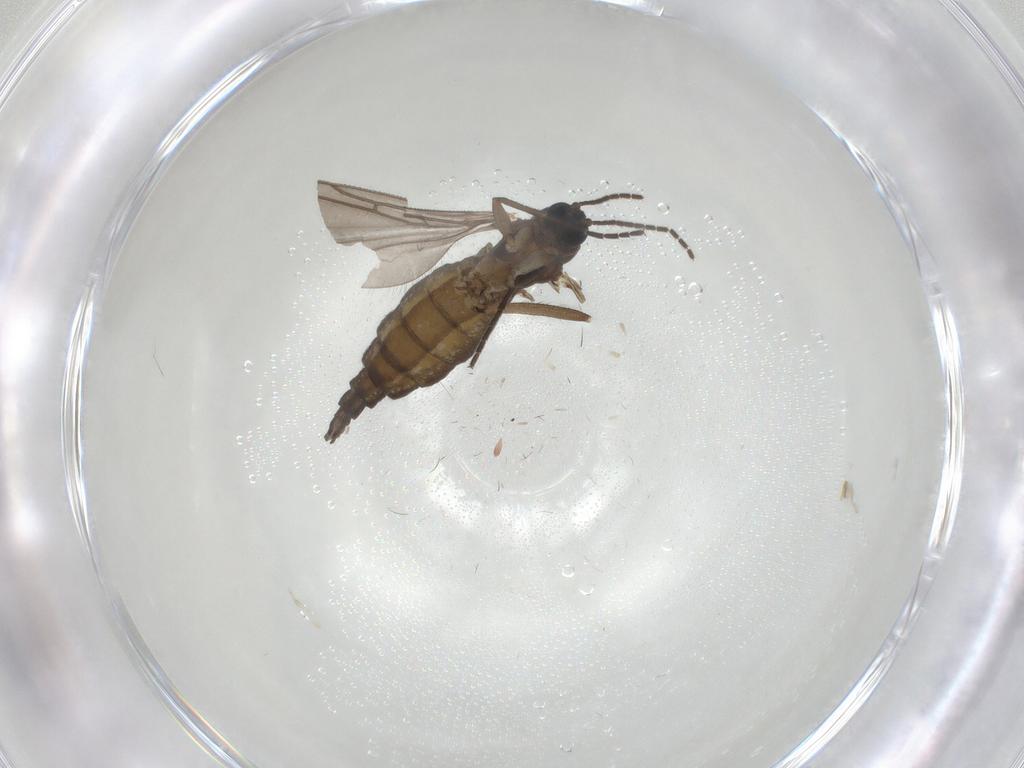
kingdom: Animalia
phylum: Arthropoda
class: Insecta
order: Diptera
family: Sciaridae
